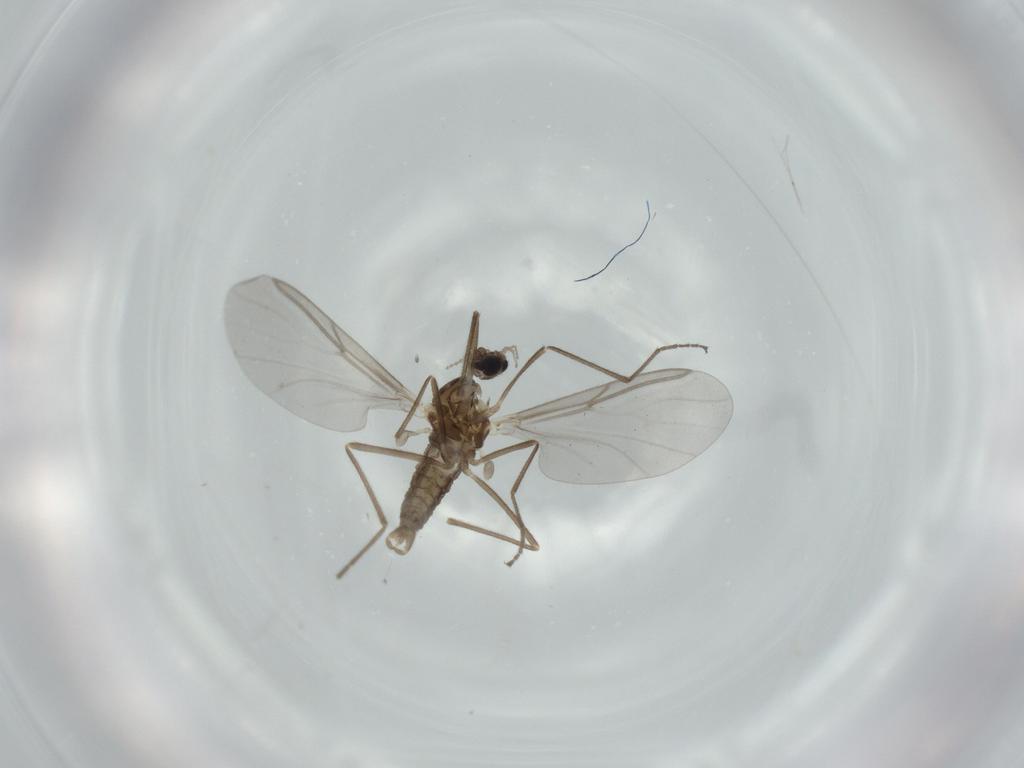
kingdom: Animalia
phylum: Arthropoda
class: Insecta
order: Diptera
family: Cecidomyiidae
